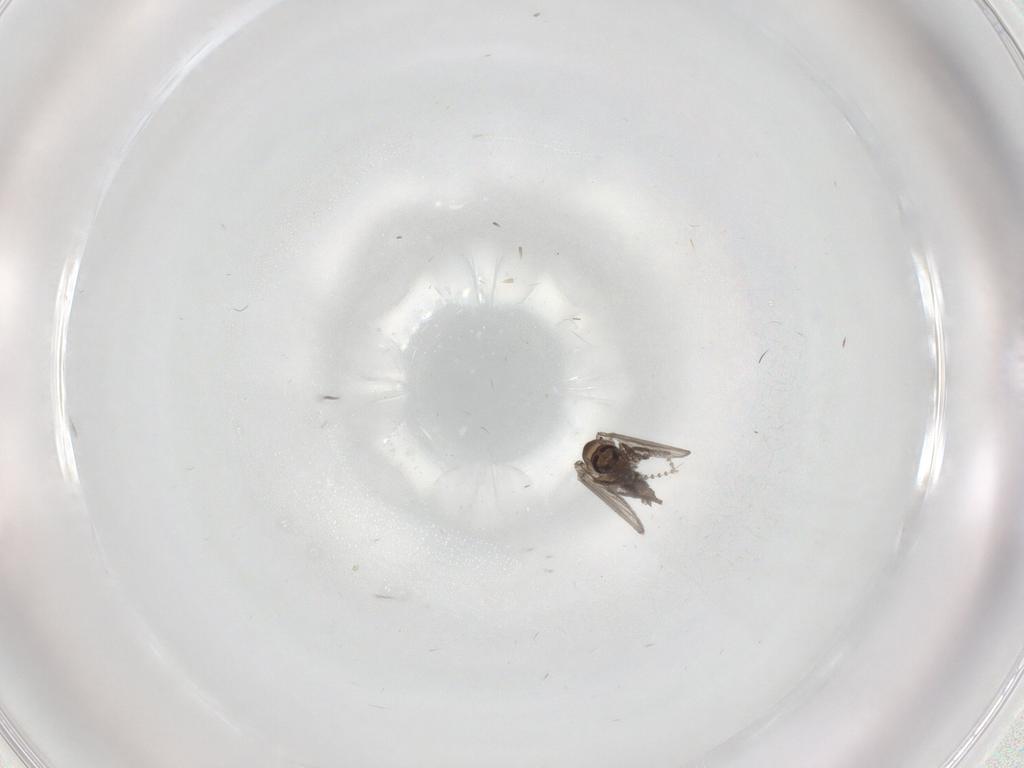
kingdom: Animalia
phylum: Arthropoda
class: Insecta
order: Diptera
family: Psychodidae
